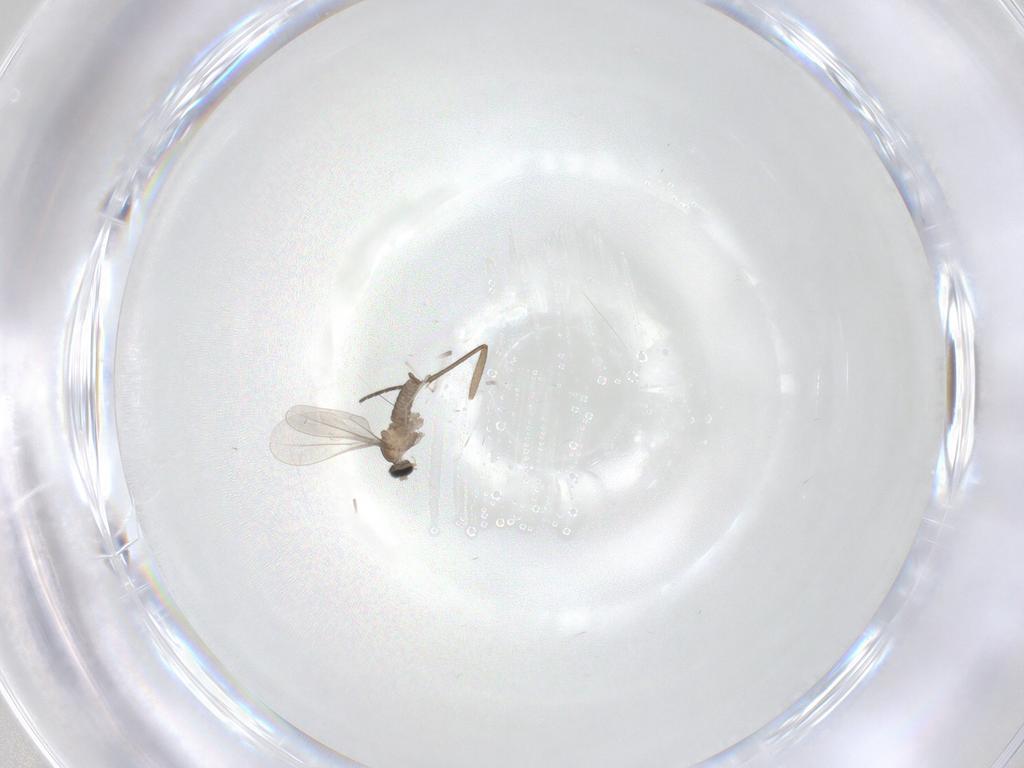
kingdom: Animalia
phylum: Arthropoda
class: Insecta
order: Diptera
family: Cecidomyiidae
